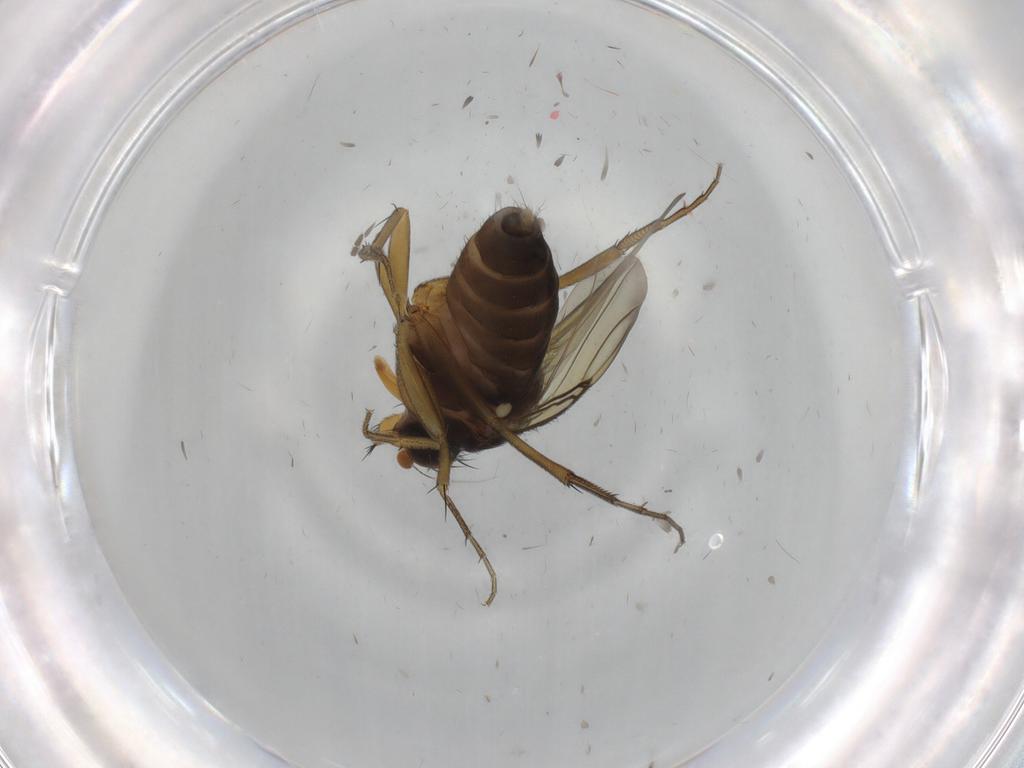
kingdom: Animalia
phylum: Arthropoda
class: Insecta
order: Diptera
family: Phoridae
